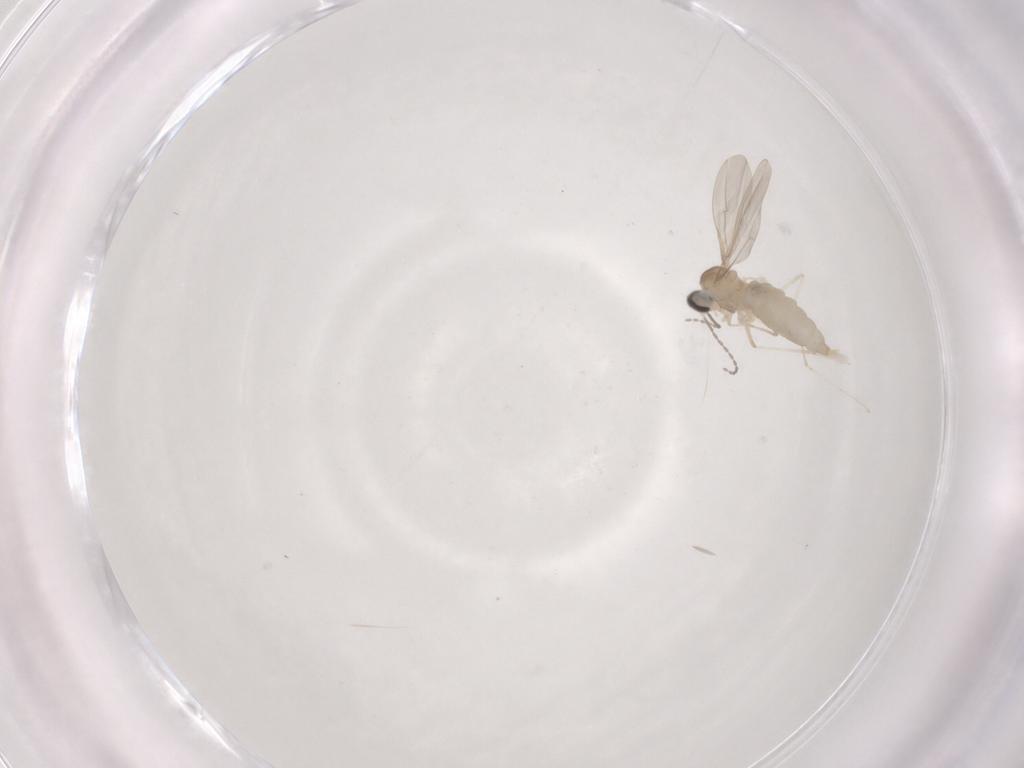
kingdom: Animalia
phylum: Arthropoda
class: Insecta
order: Diptera
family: Cecidomyiidae
